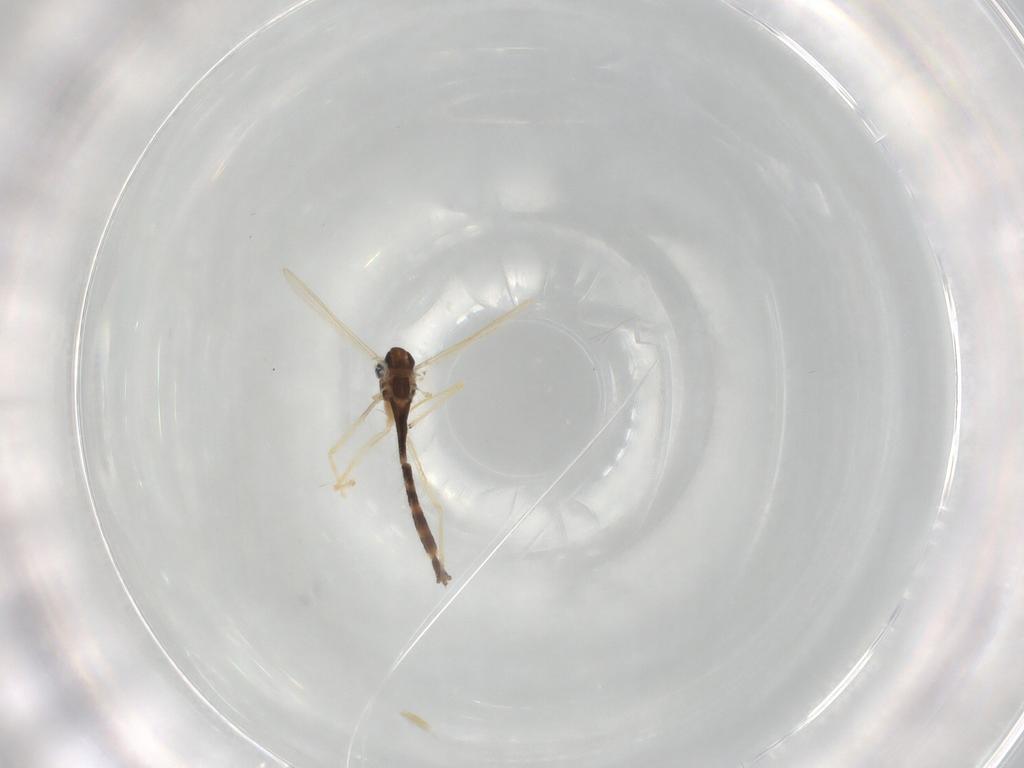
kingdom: Animalia
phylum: Arthropoda
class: Insecta
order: Diptera
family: Chironomidae
